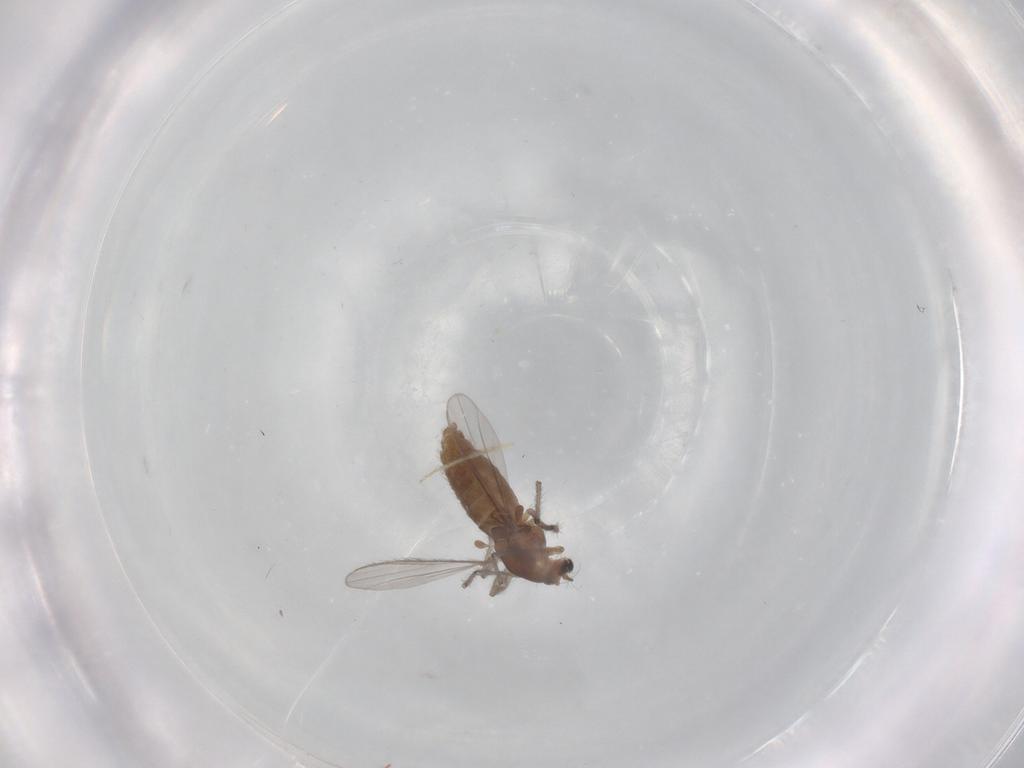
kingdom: Animalia
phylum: Arthropoda
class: Insecta
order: Diptera
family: Chironomidae
